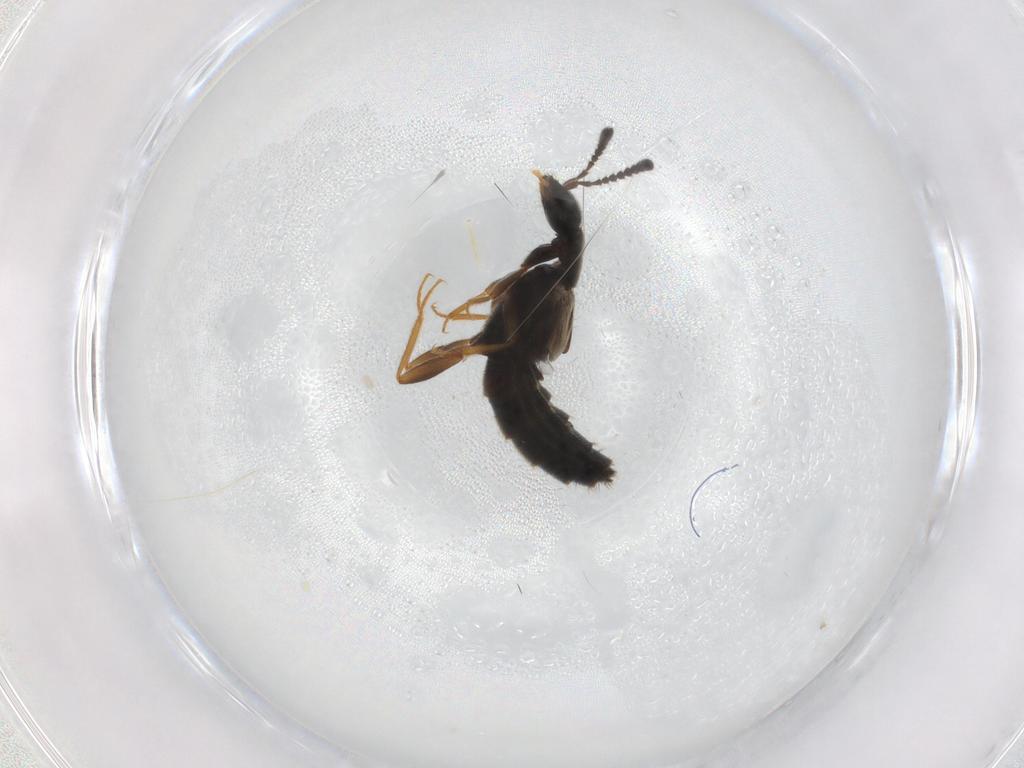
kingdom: Animalia
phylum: Arthropoda
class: Insecta
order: Coleoptera
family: Staphylinidae
